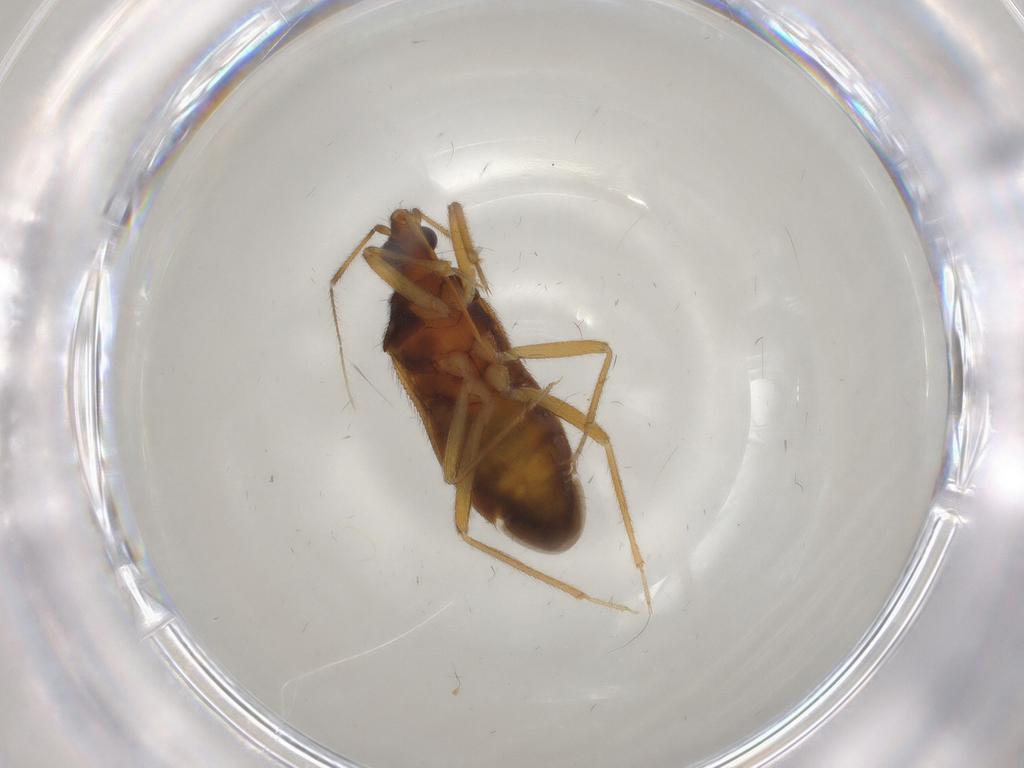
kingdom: Animalia
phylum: Arthropoda
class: Insecta
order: Hemiptera
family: Anthocoridae
